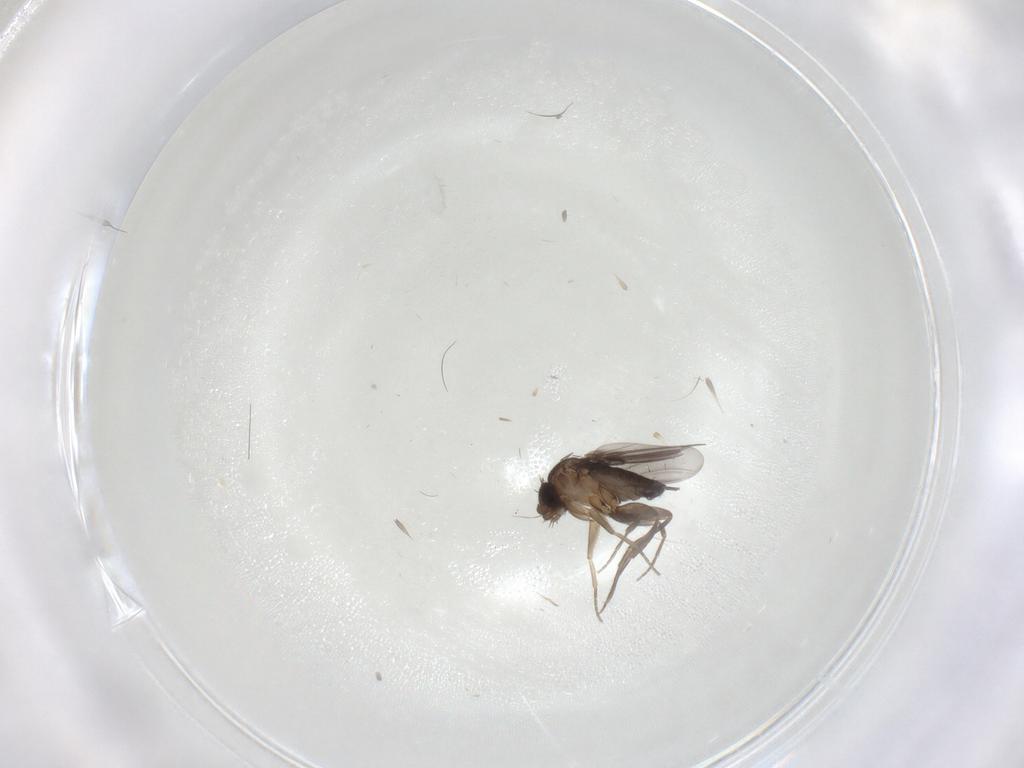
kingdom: Animalia
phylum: Arthropoda
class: Insecta
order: Diptera
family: Phoridae
